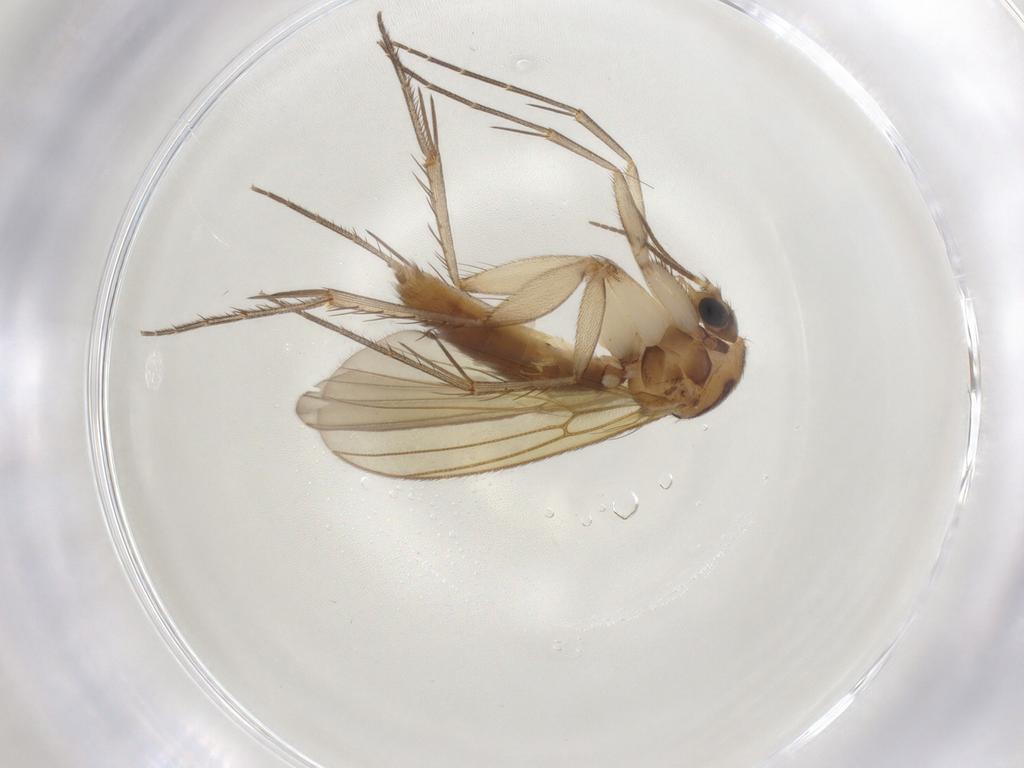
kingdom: Animalia
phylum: Arthropoda
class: Insecta
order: Diptera
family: Mycetophilidae
